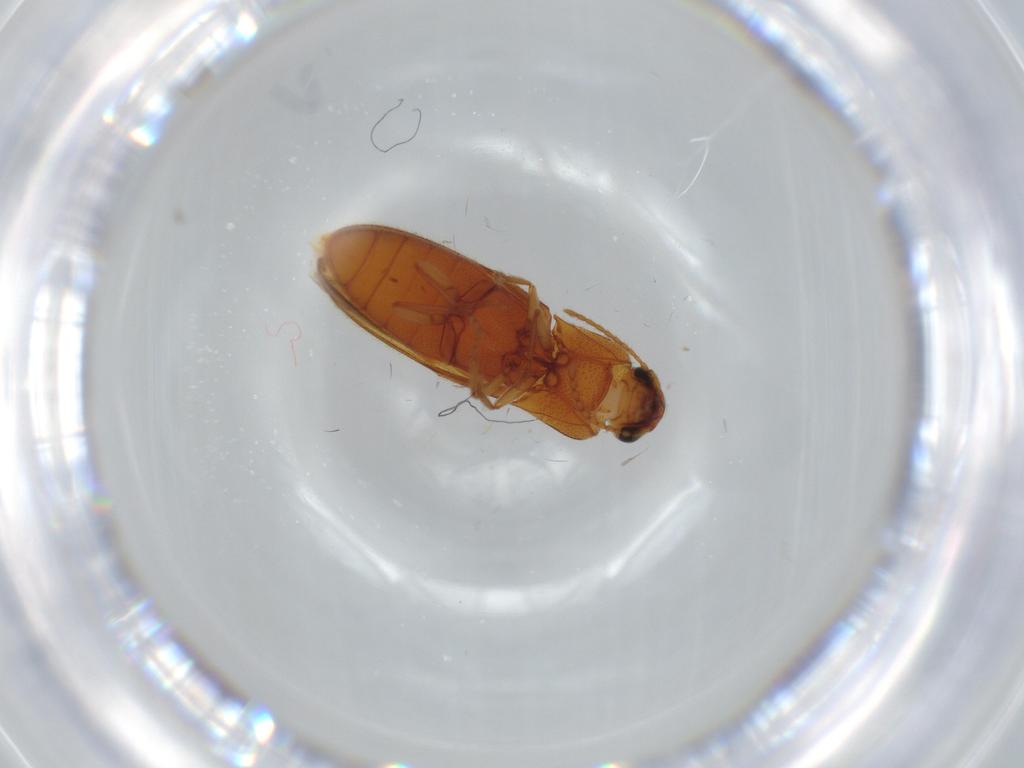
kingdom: Animalia
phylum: Arthropoda
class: Insecta
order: Coleoptera
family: Elateridae
